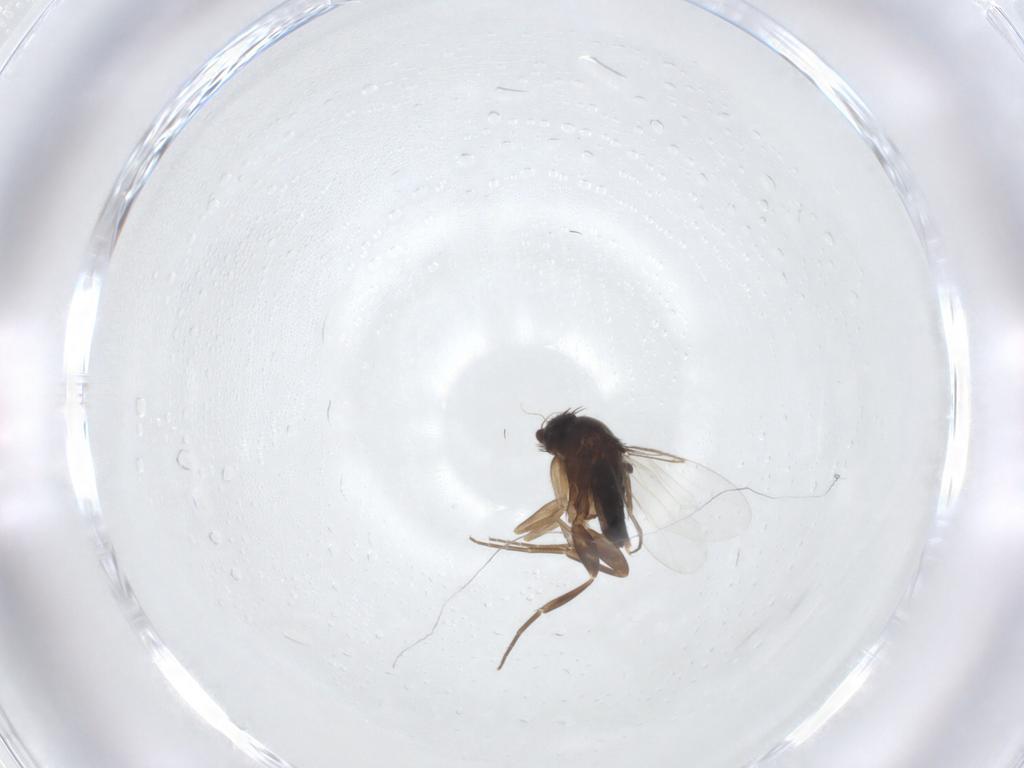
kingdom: Animalia
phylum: Arthropoda
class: Insecta
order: Diptera
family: Phoridae
